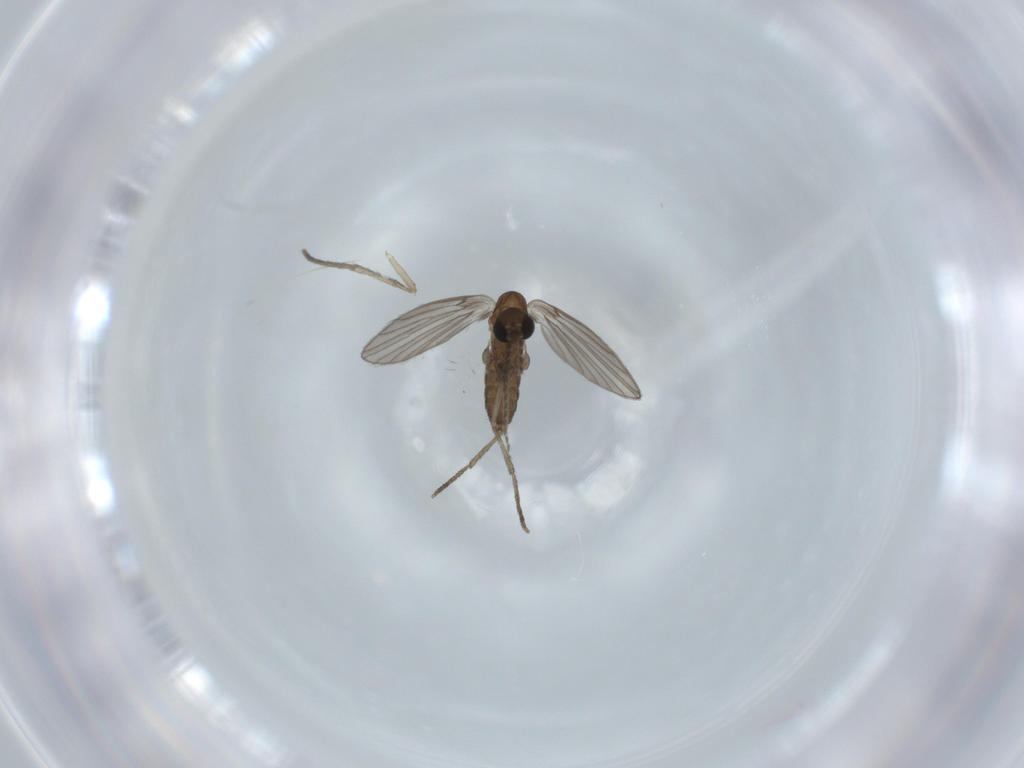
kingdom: Animalia
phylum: Arthropoda
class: Insecta
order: Diptera
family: Psychodidae
